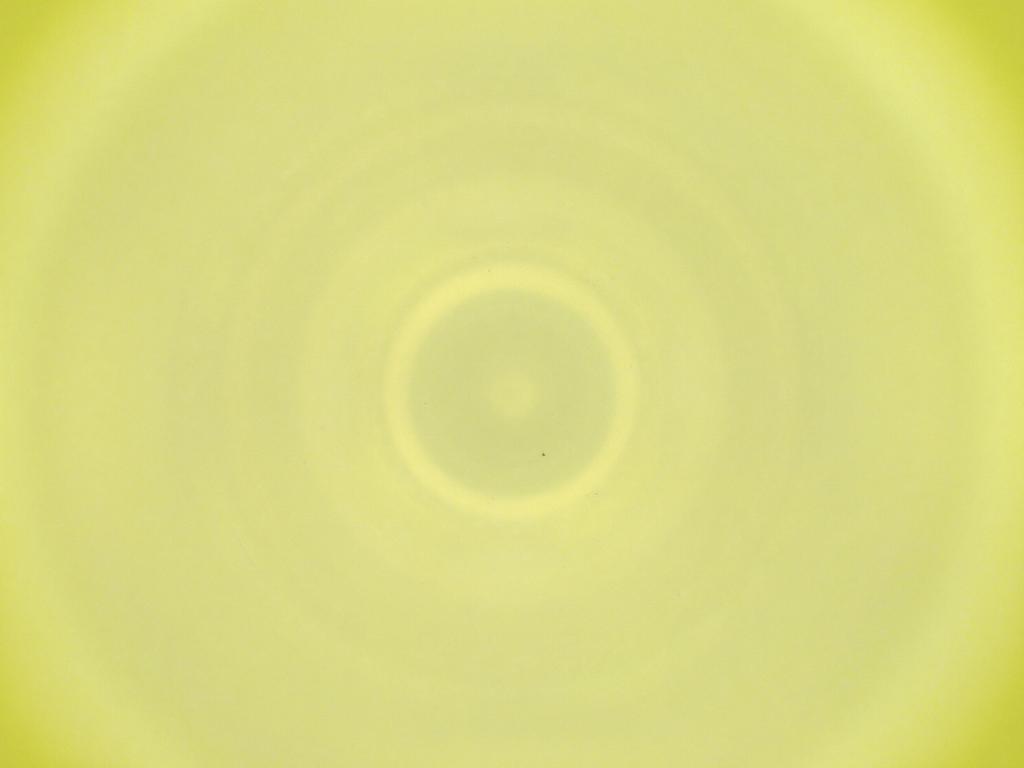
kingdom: Animalia
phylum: Arthropoda
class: Insecta
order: Diptera
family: Cecidomyiidae
